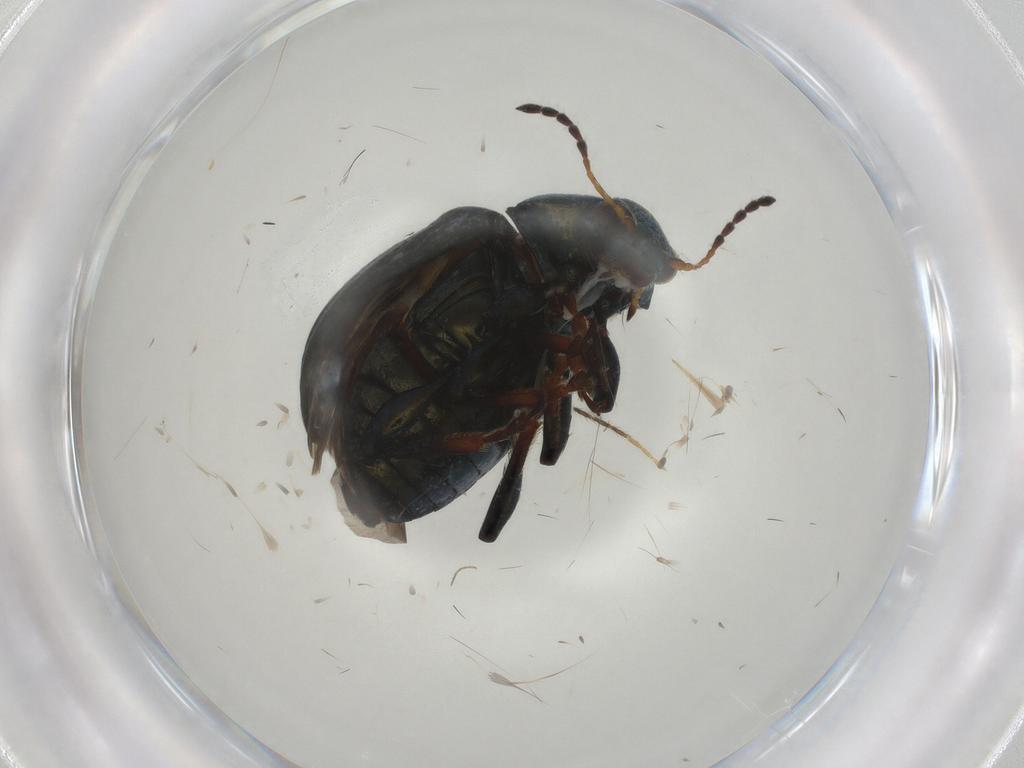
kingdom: Animalia
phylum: Arthropoda
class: Insecta
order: Coleoptera
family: Chrysomelidae
